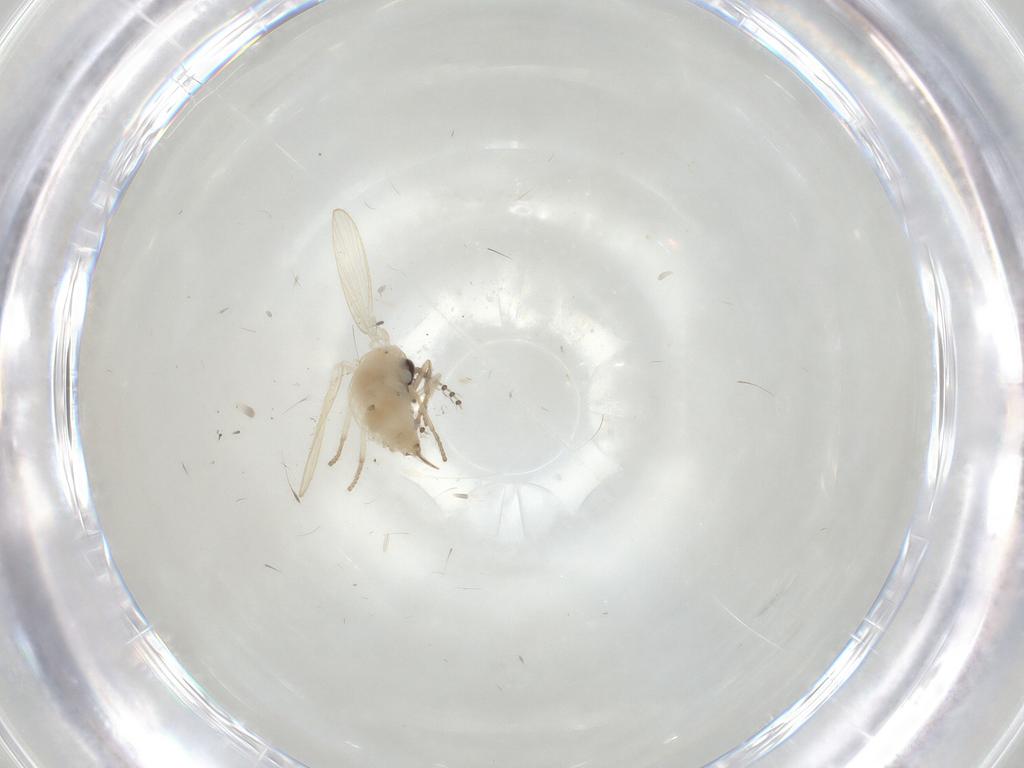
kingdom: Animalia
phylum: Arthropoda
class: Insecta
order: Diptera
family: Psychodidae
